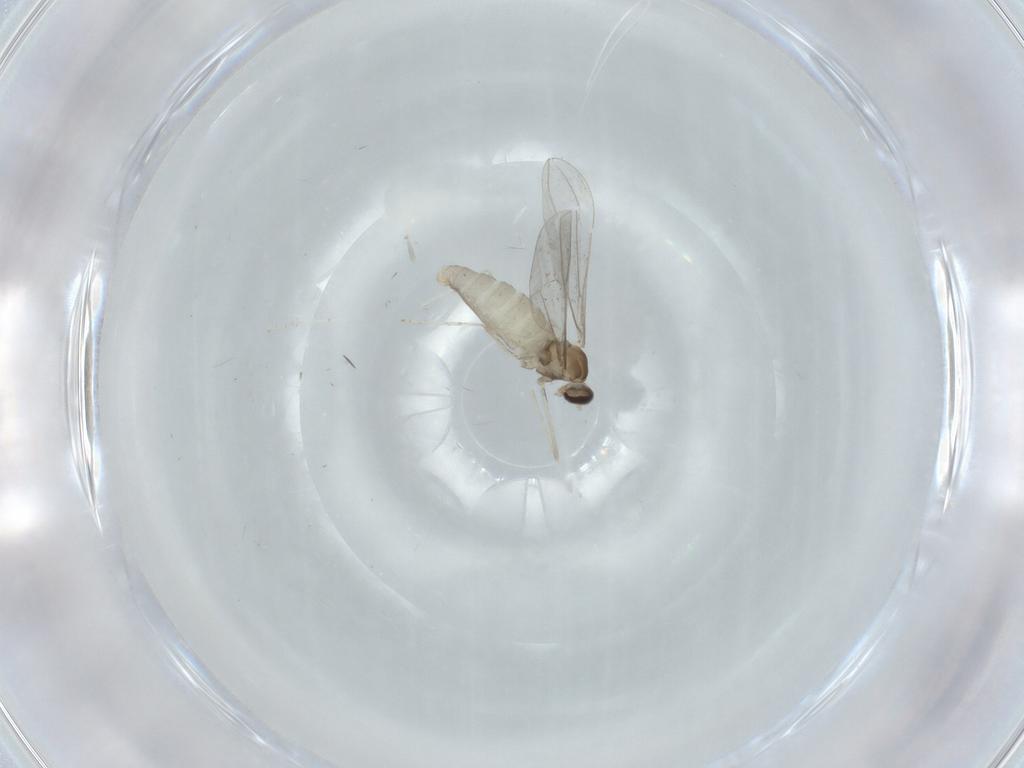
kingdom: Animalia
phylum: Arthropoda
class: Insecta
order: Diptera
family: Cecidomyiidae
